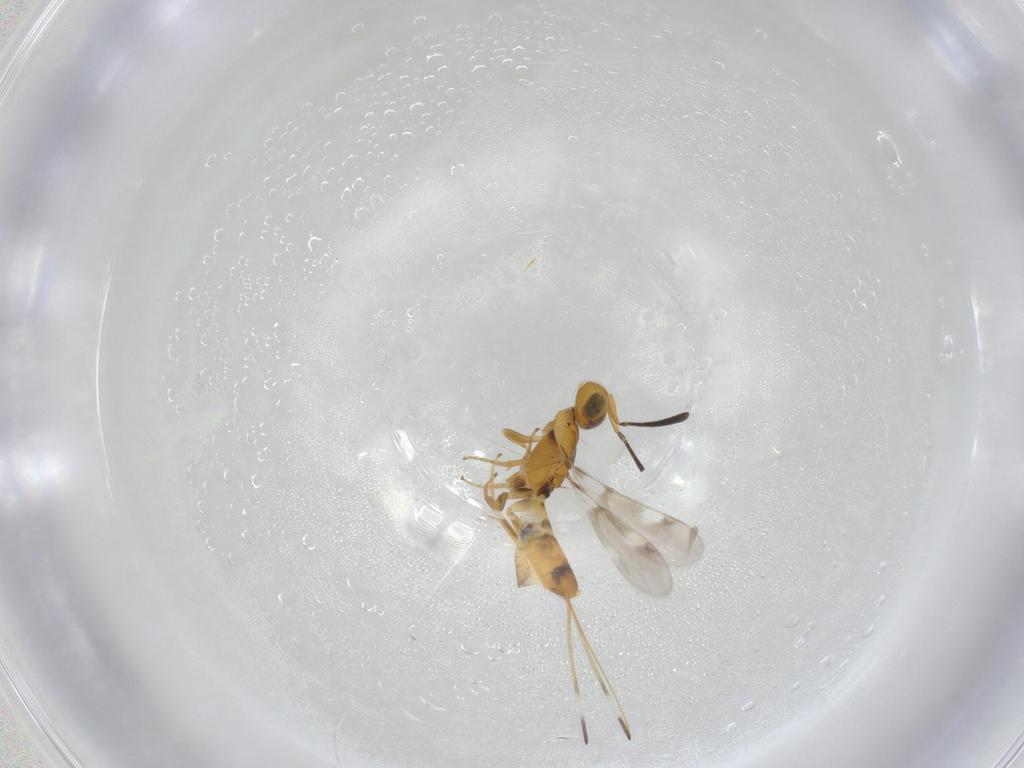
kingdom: Animalia
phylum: Arthropoda
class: Insecta
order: Hymenoptera
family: Eupelmidae
